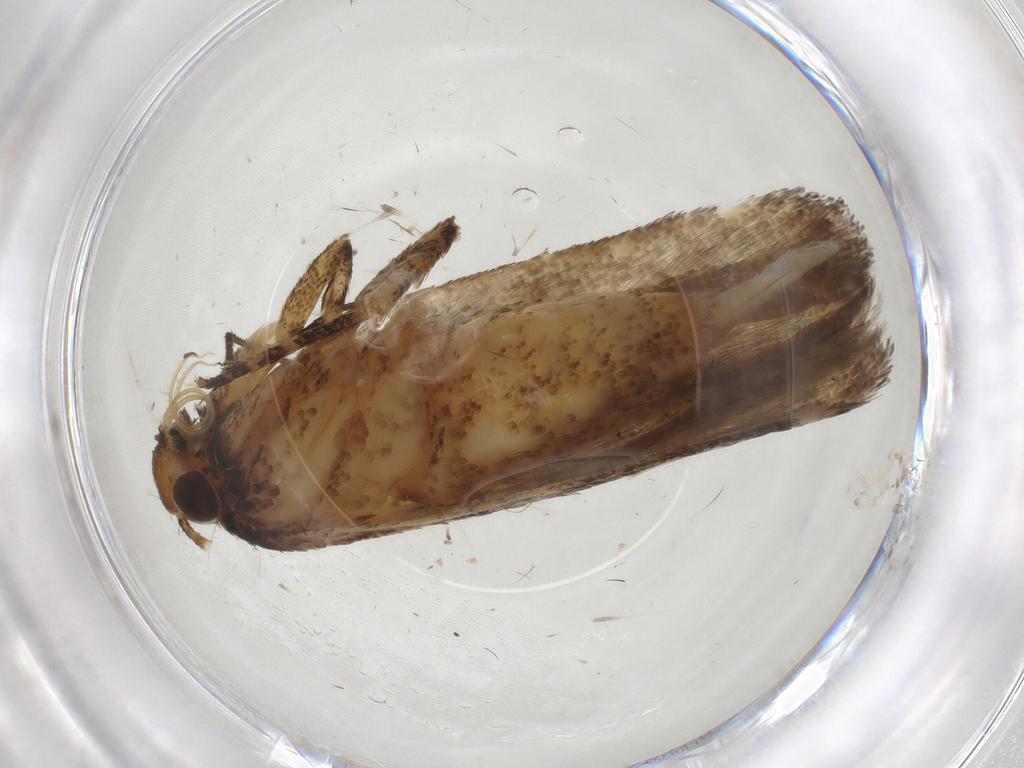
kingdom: Animalia
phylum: Arthropoda
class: Insecta
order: Lepidoptera
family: Gelechiidae
